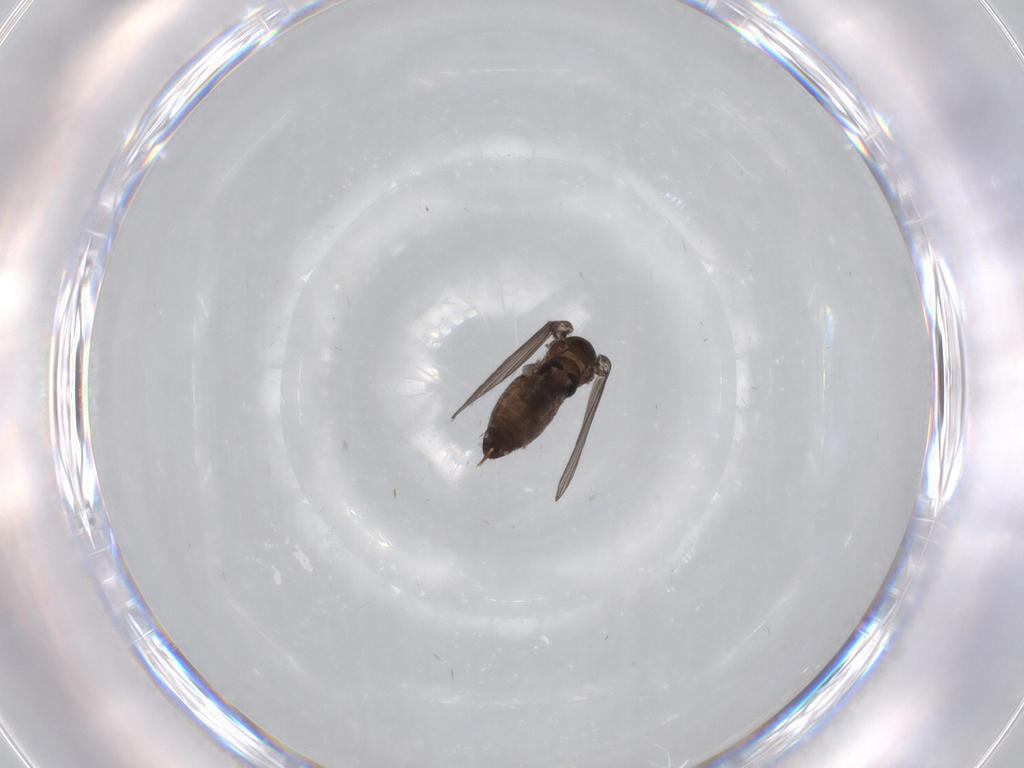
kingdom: Animalia
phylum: Arthropoda
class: Insecta
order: Diptera
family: Psychodidae
